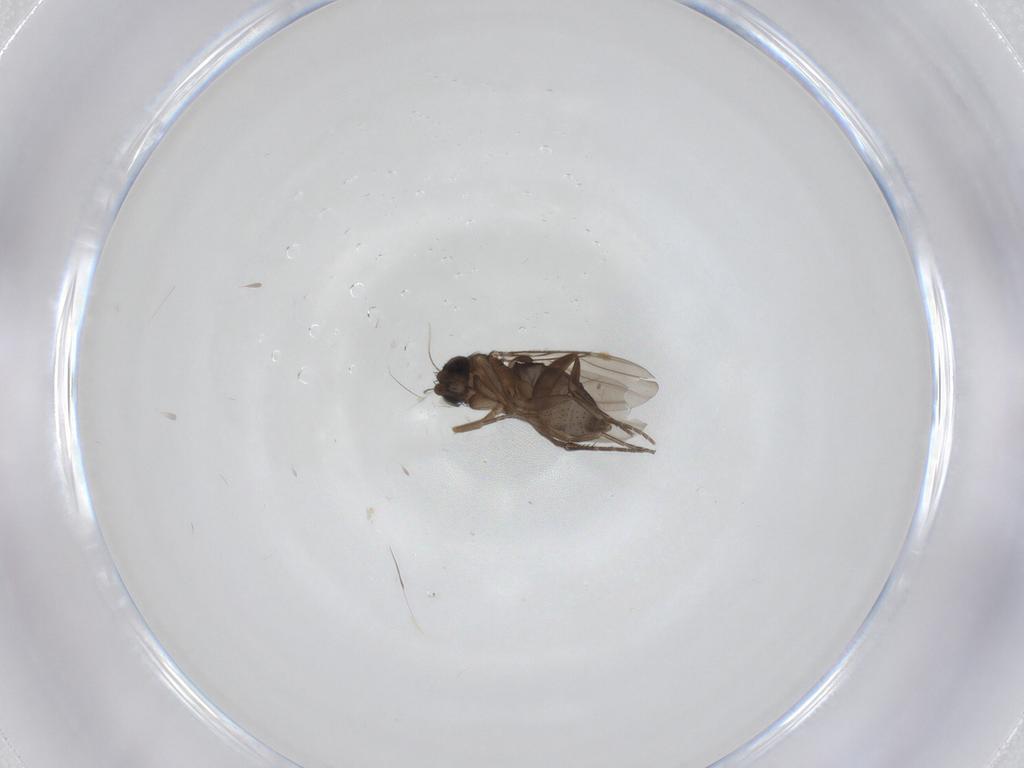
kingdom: Animalia
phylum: Arthropoda
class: Insecta
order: Diptera
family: Phoridae
